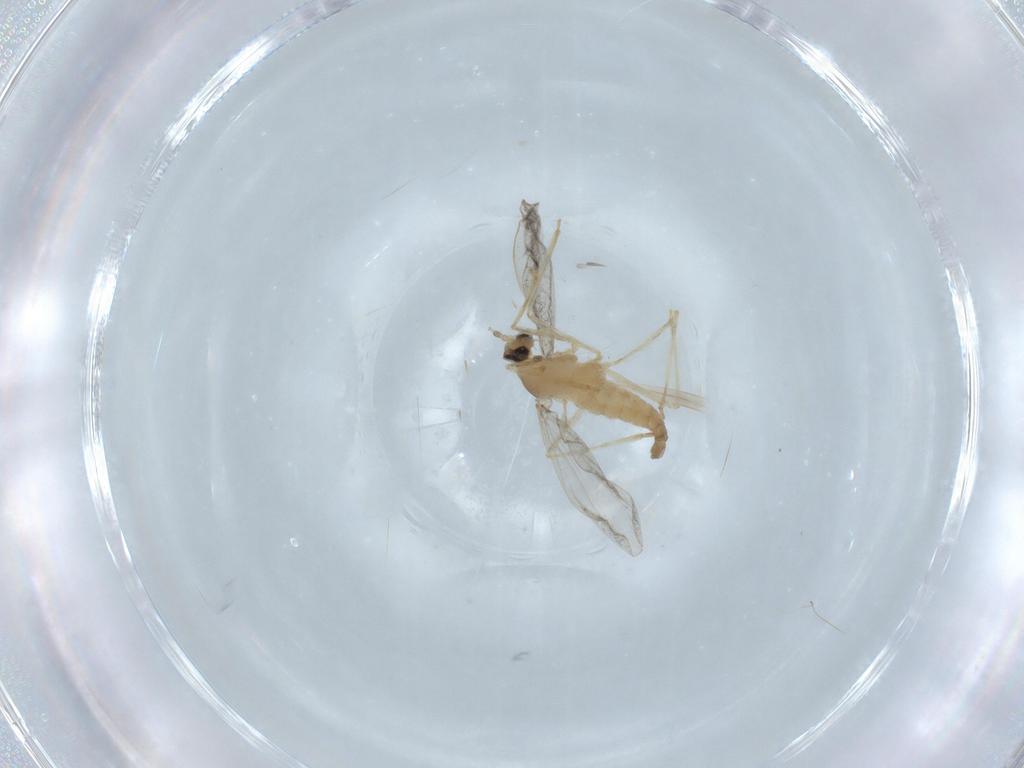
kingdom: Animalia
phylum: Arthropoda
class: Insecta
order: Diptera
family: Cecidomyiidae
